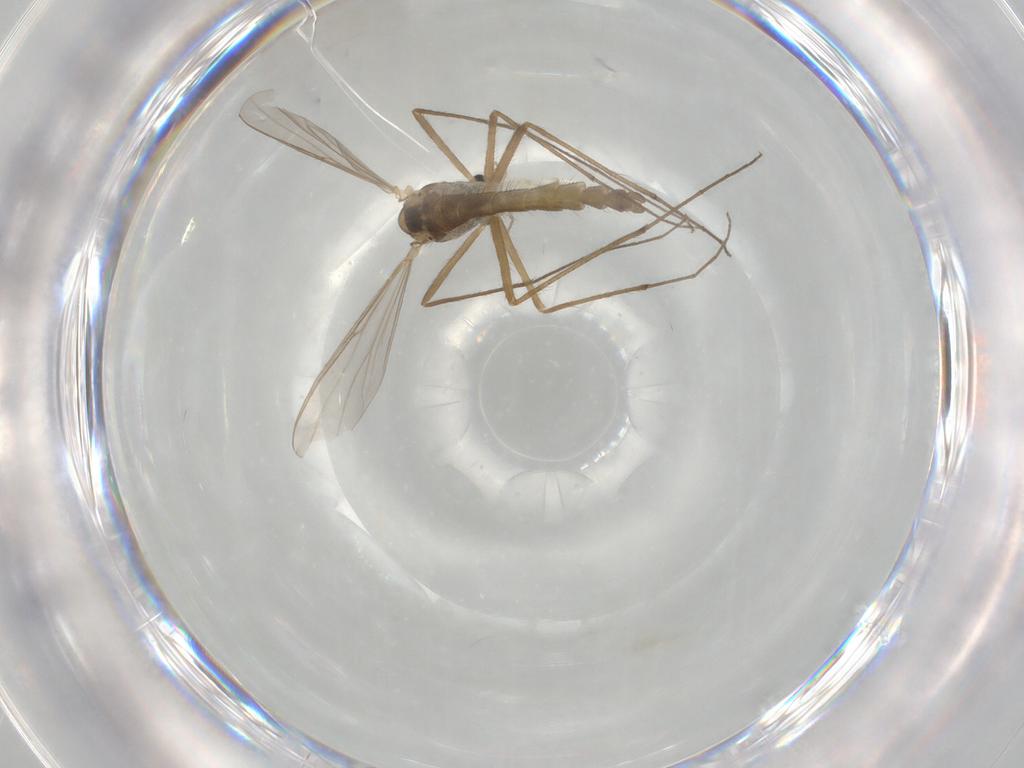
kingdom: Animalia
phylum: Arthropoda
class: Insecta
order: Diptera
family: Chironomidae
